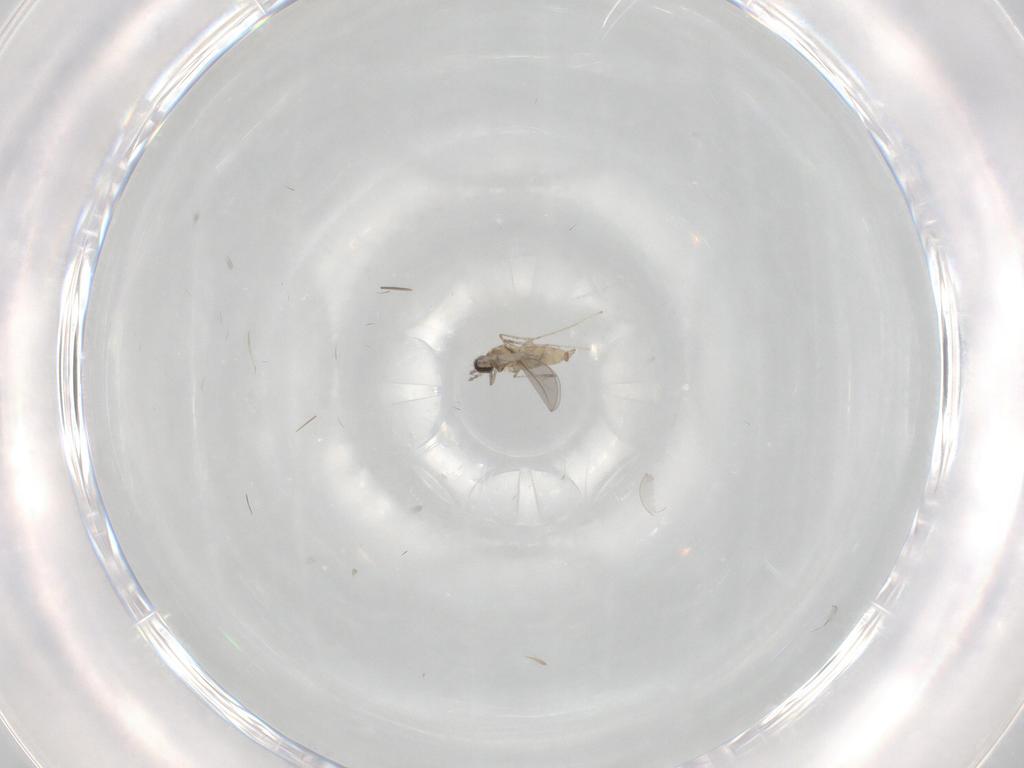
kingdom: Animalia
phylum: Arthropoda
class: Insecta
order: Diptera
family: Cecidomyiidae
